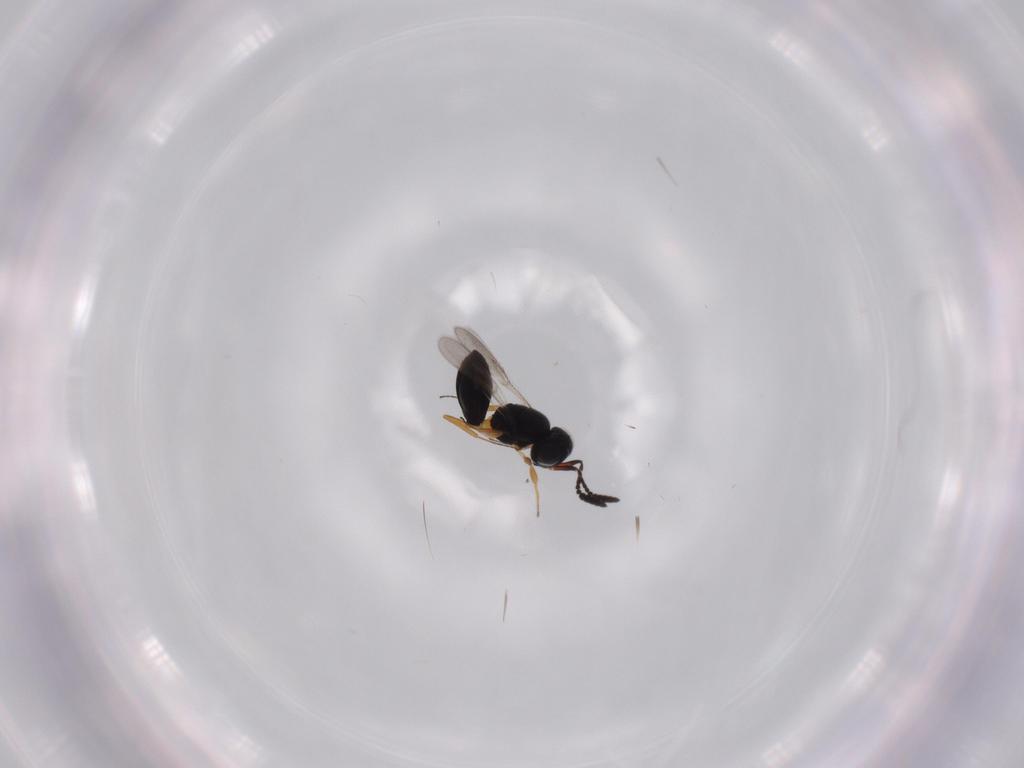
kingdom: Animalia
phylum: Arthropoda
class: Insecta
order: Hymenoptera
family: Scelionidae
